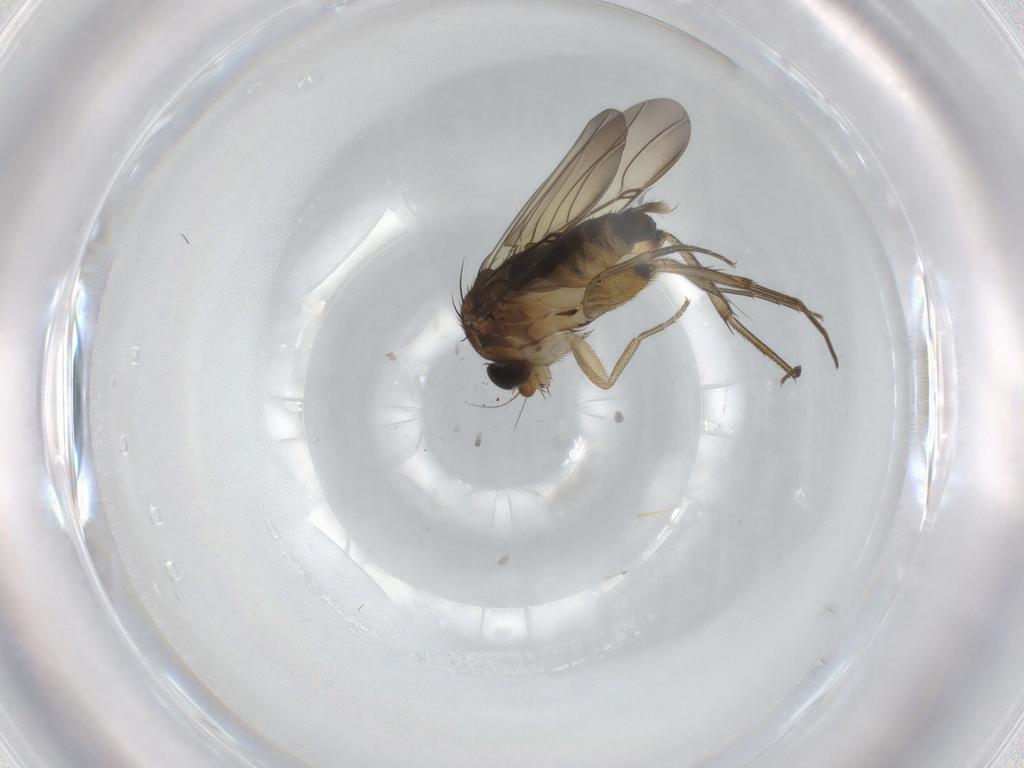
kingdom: Animalia
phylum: Arthropoda
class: Insecta
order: Diptera
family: Phoridae
